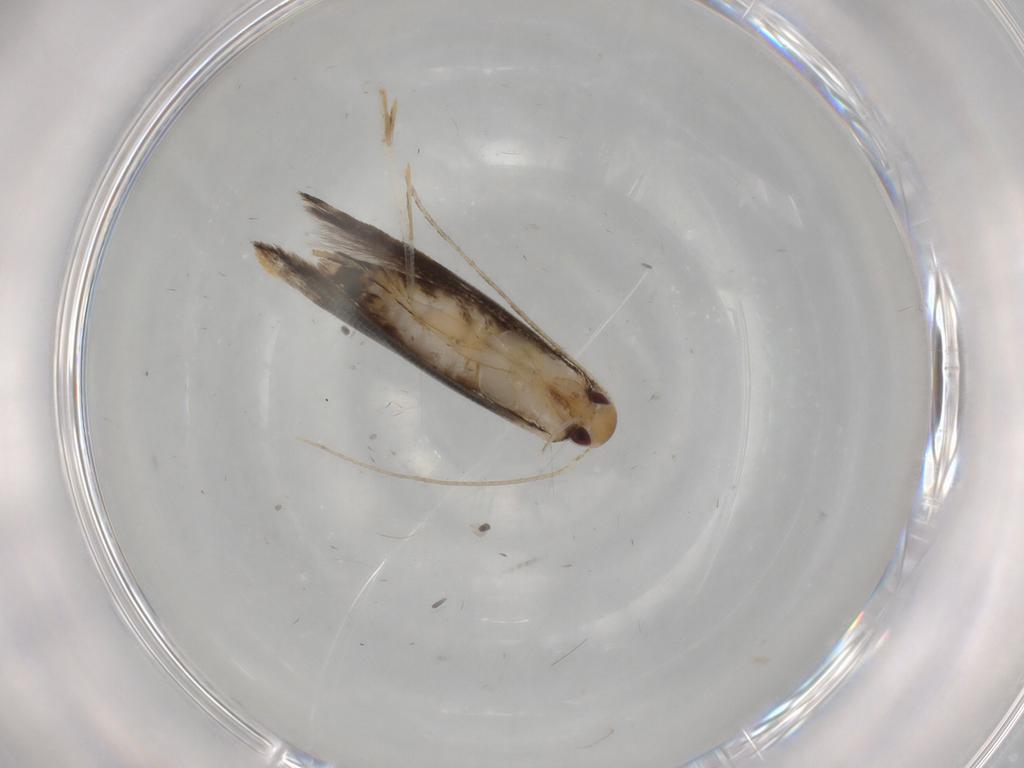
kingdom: Animalia
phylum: Arthropoda
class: Insecta
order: Lepidoptera
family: Momphidae
